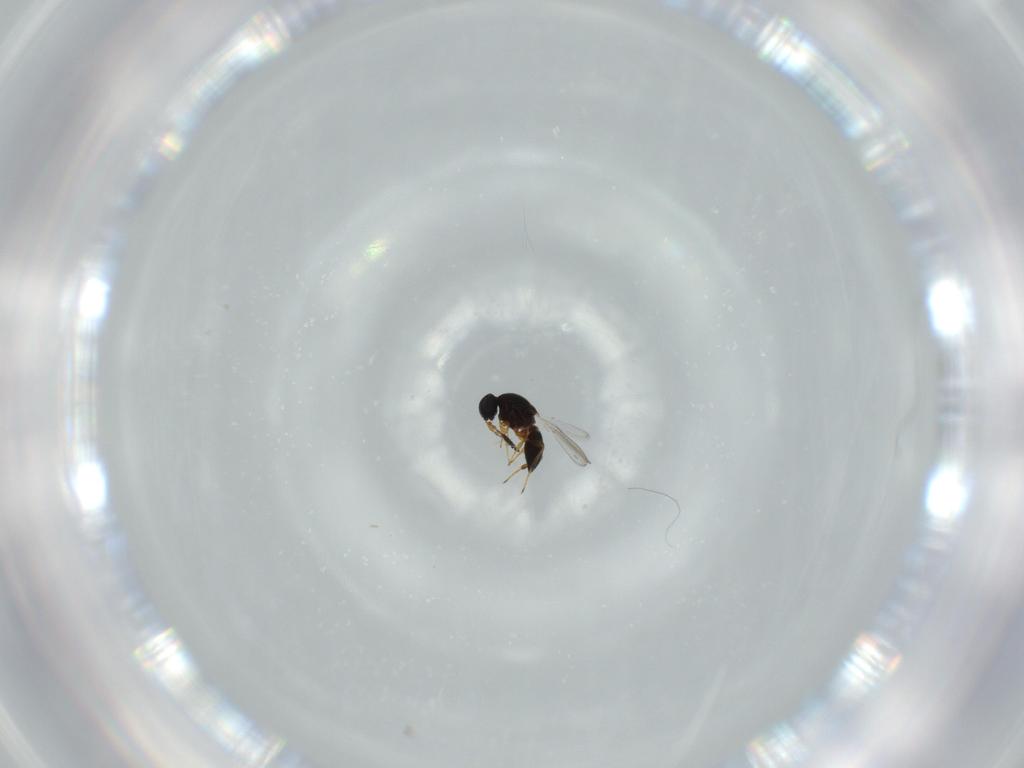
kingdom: Animalia
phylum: Arthropoda
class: Insecta
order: Hymenoptera
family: Platygastridae
